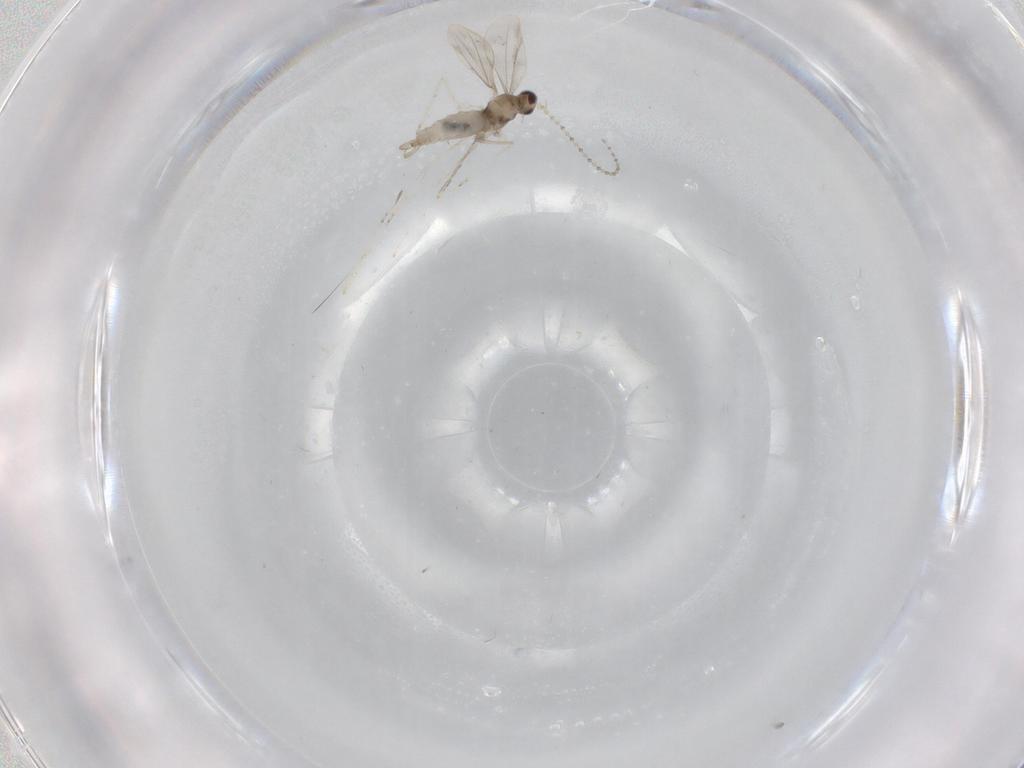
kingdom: Animalia
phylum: Arthropoda
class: Insecta
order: Diptera
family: Cecidomyiidae
